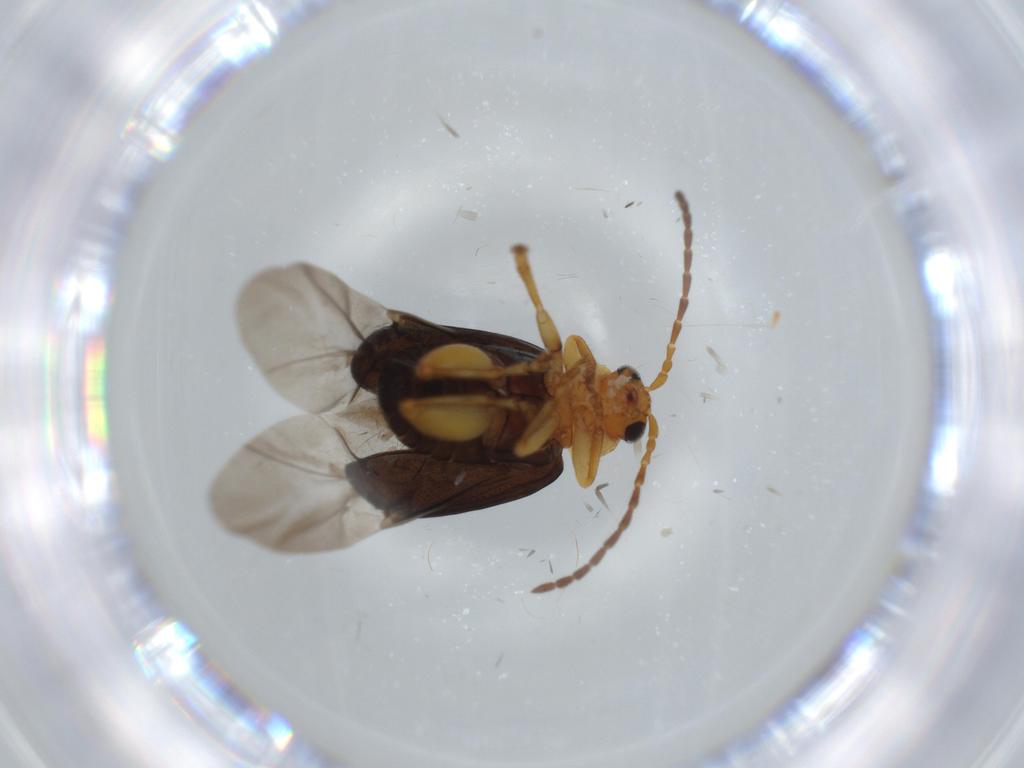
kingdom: Animalia
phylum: Arthropoda
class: Insecta
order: Coleoptera
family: Chrysomelidae
